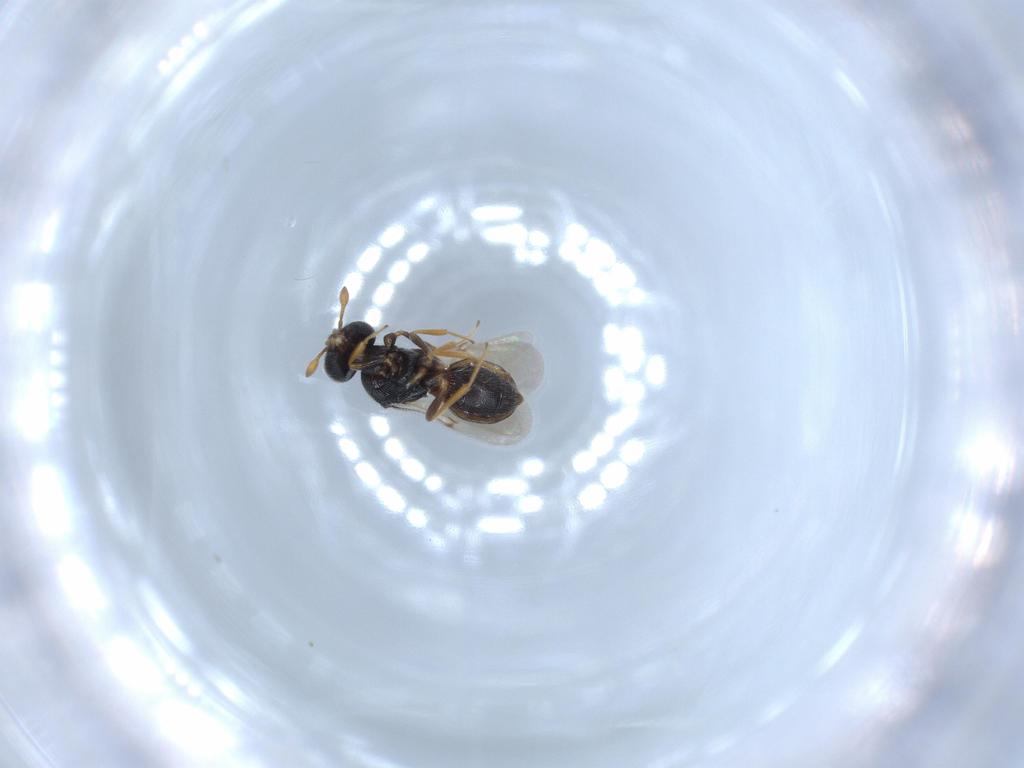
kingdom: Animalia
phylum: Arthropoda
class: Insecta
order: Hymenoptera
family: Scelionidae
